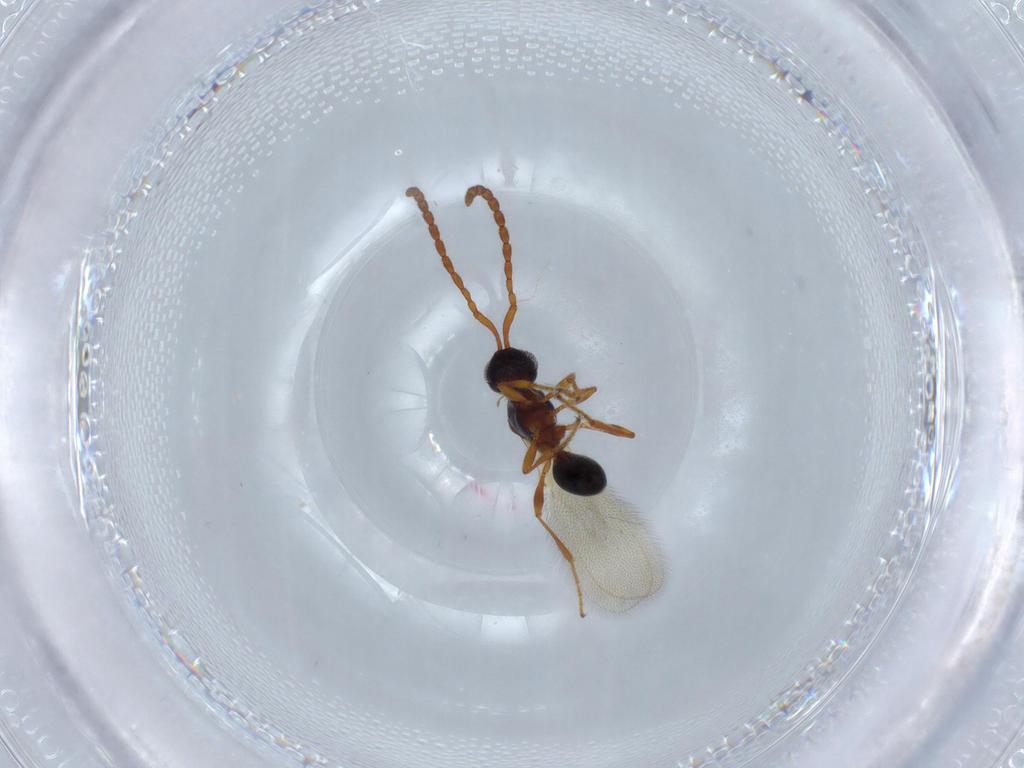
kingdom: Animalia
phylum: Arthropoda
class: Insecta
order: Hymenoptera
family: Diapriidae
